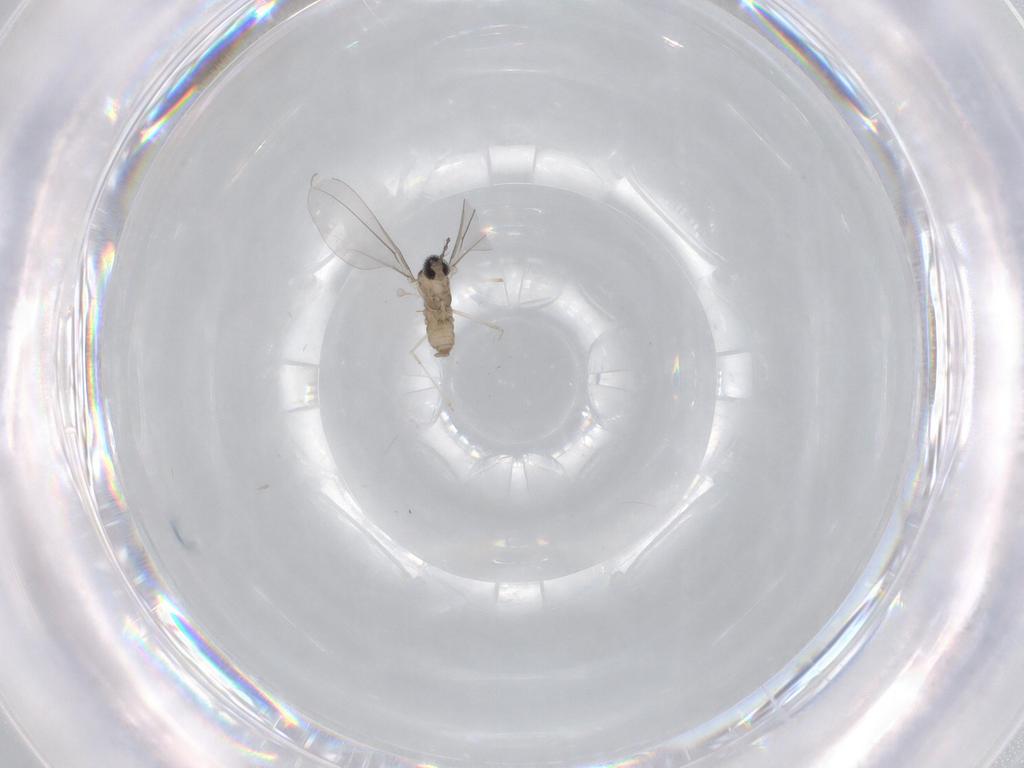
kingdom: Animalia
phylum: Arthropoda
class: Insecta
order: Diptera
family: Cecidomyiidae
